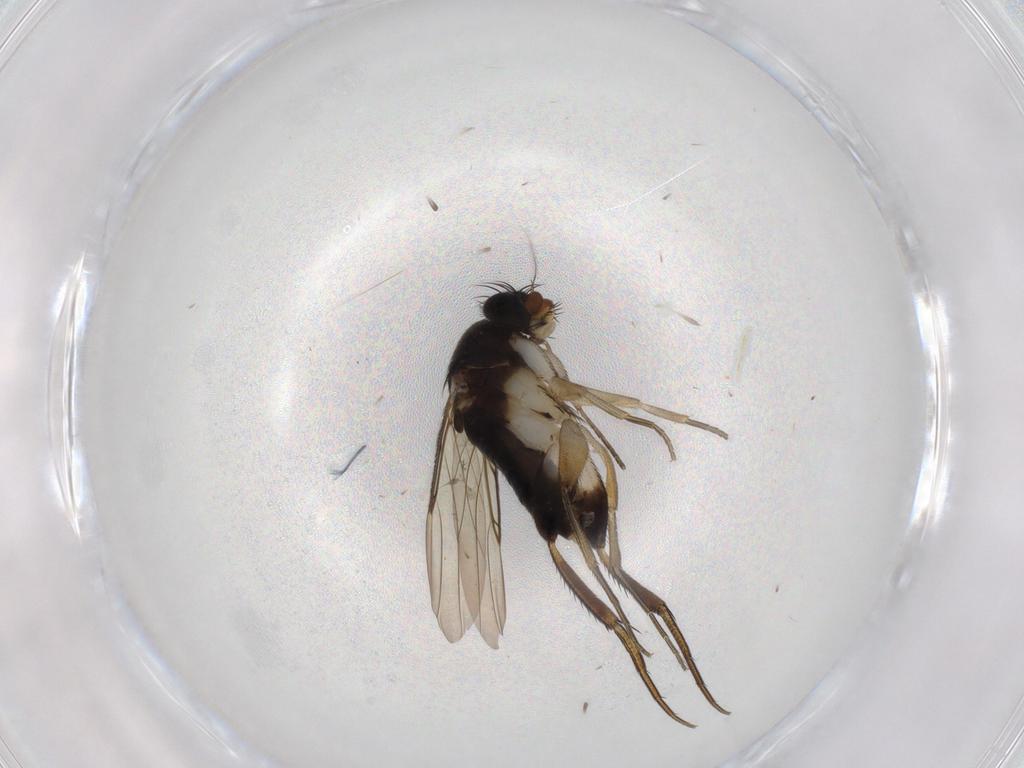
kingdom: Animalia
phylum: Arthropoda
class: Insecta
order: Diptera
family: Phoridae
